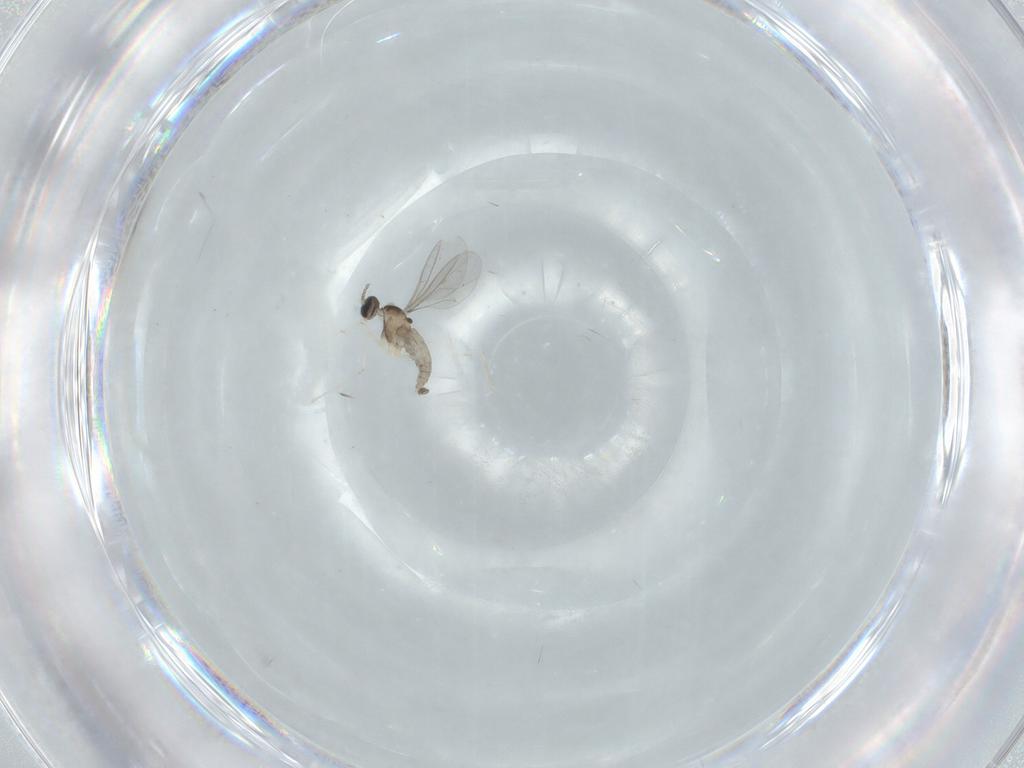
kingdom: Animalia
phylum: Arthropoda
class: Insecta
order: Diptera
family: Cecidomyiidae
